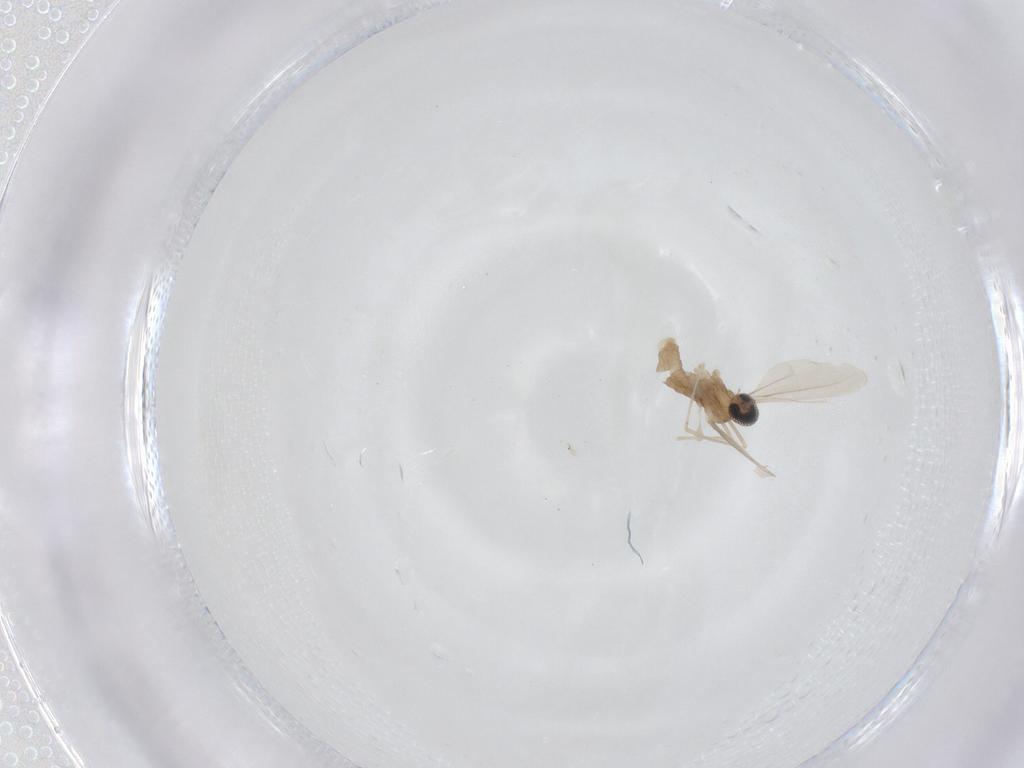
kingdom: Animalia
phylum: Arthropoda
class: Insecta
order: Diptera
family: Cecidomyiidae
